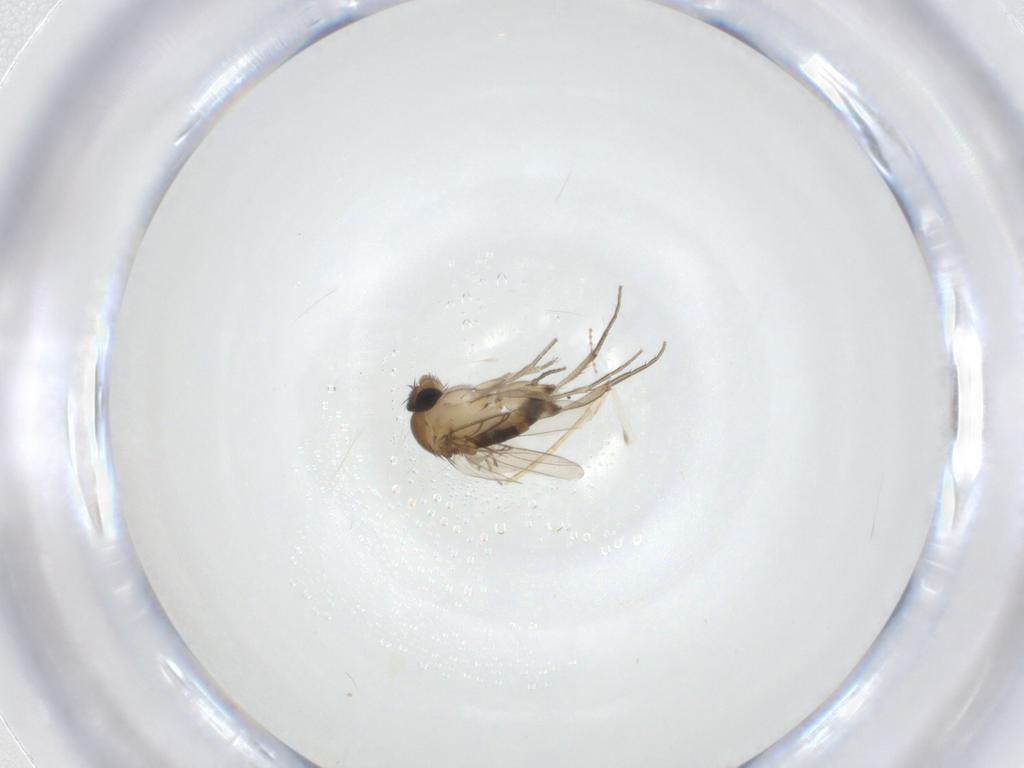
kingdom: Animalia
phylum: Arthropoda
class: Insecta
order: Diptera
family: Phoridae
